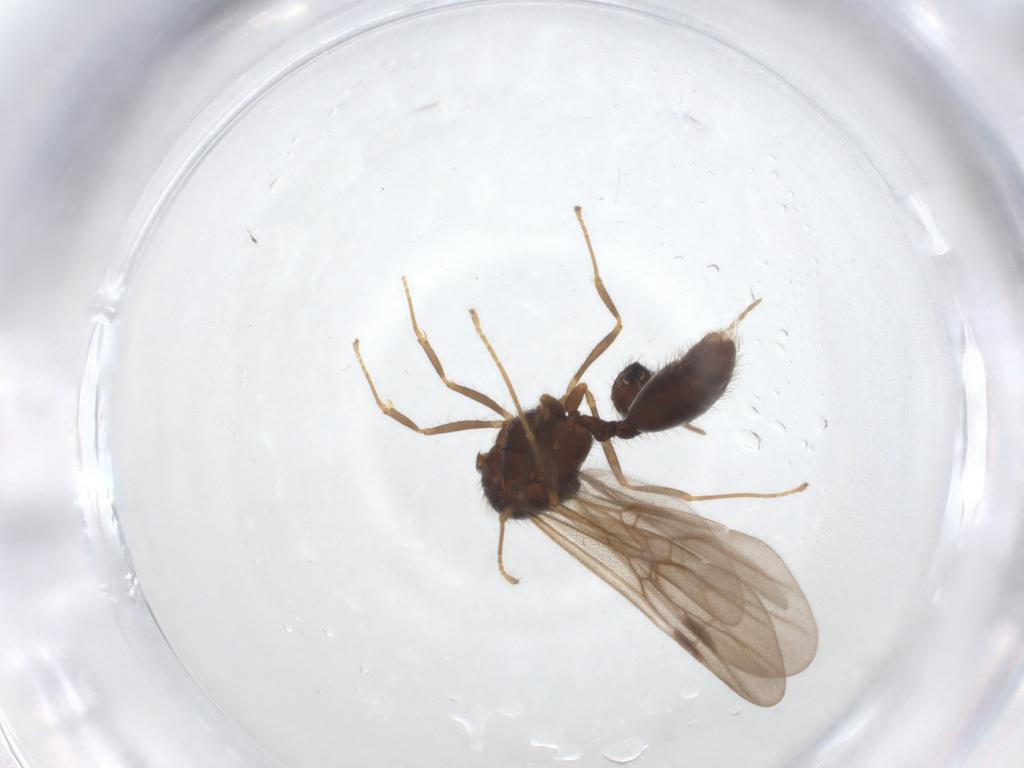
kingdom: Animalia
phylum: Arthropoda
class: Insecta
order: Hymenoptera
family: Formicidae
